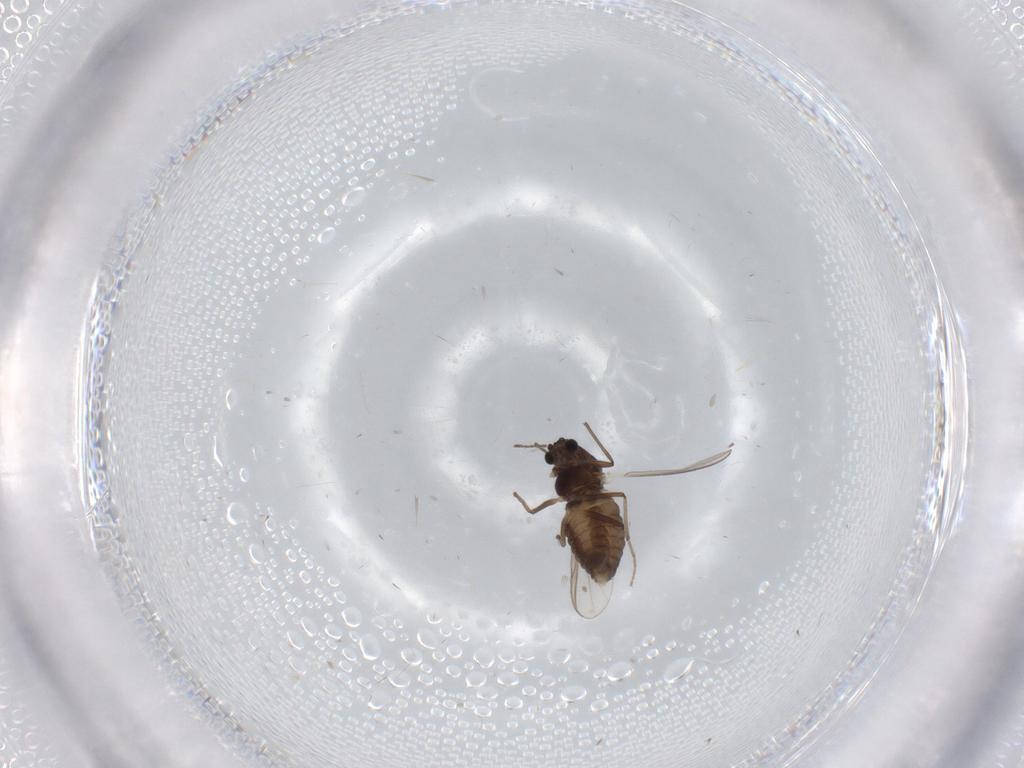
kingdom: Animalia
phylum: Arthropoda
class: Insecta
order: Diptera
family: Chironomidae
